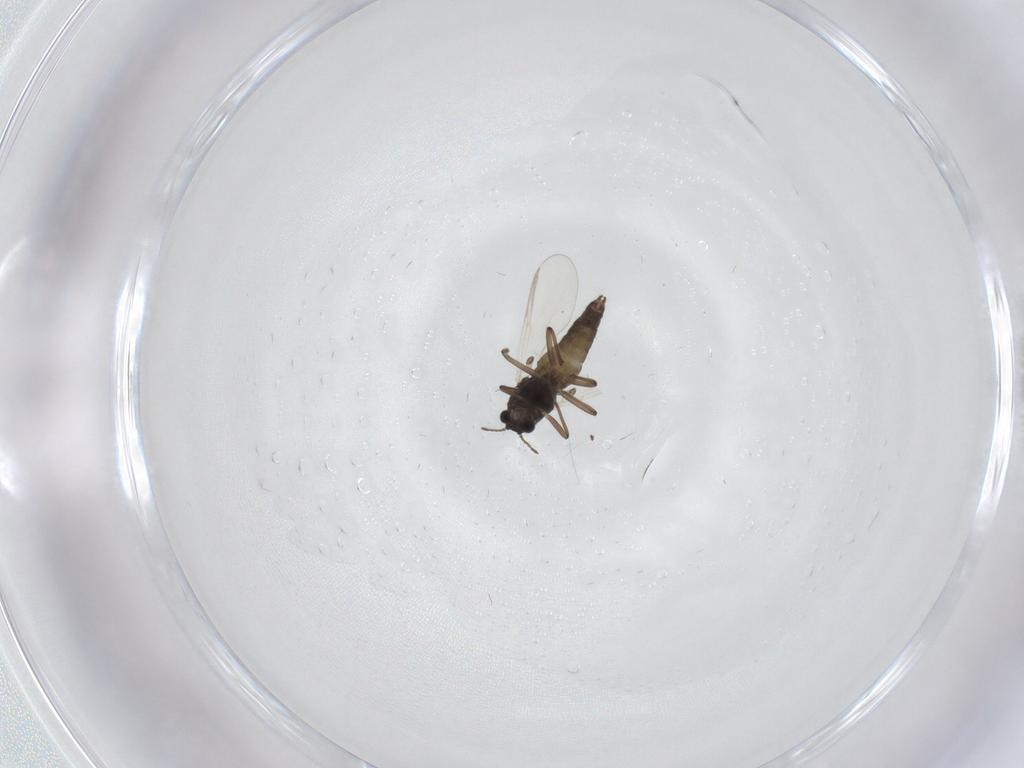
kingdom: Animalia
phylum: Arthropoda
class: Insecta
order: Diptera
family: Chironomidae
